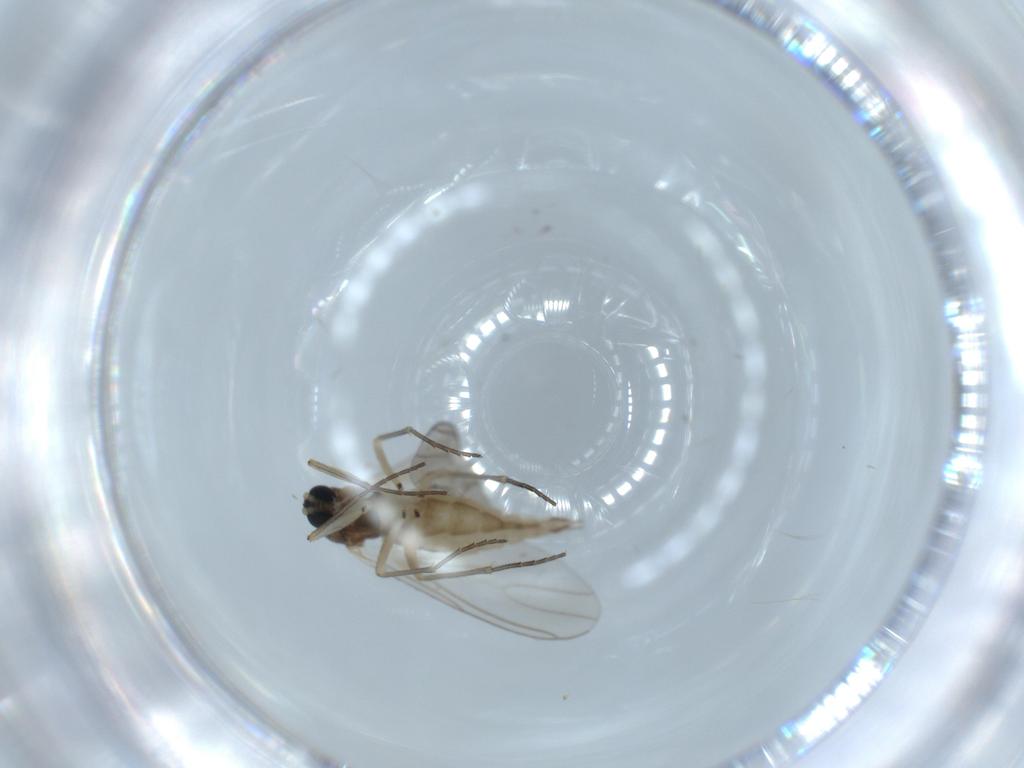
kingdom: Animalia
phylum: Arthropoda
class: Insecta
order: Diptera
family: Sciaridae
